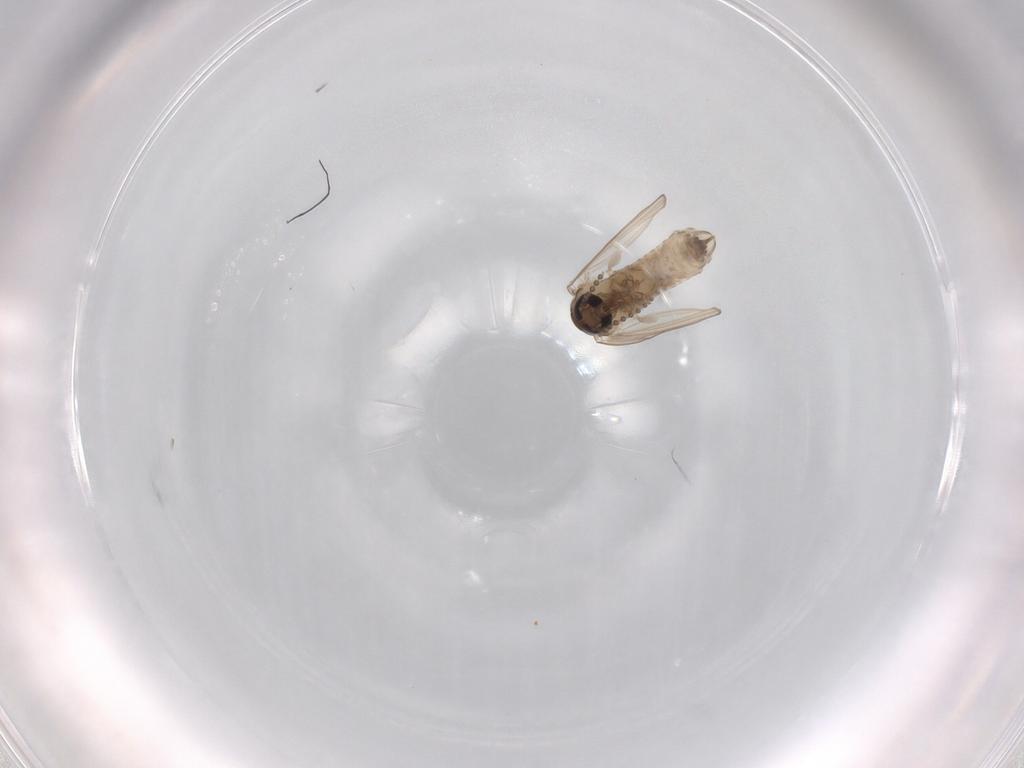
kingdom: Animalia
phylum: Arthropoda
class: Insecta
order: Diptera
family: Psychodidae
